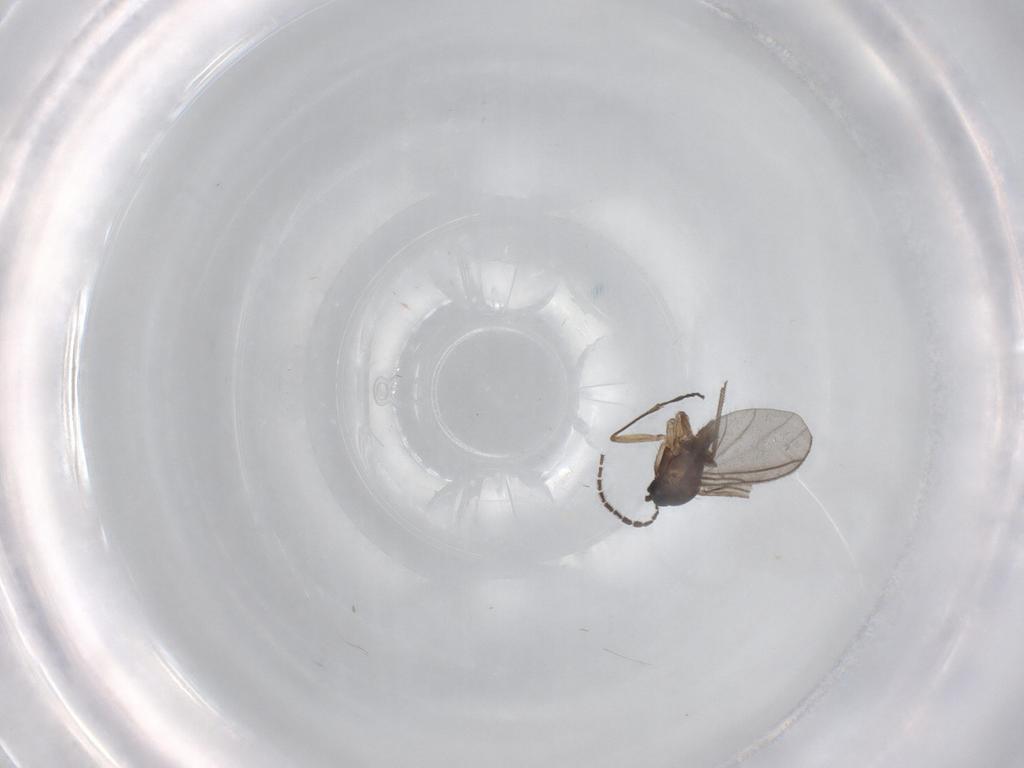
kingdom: Animalia
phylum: Arthropoda
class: Insecta
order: Diptera
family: Sciaridae
